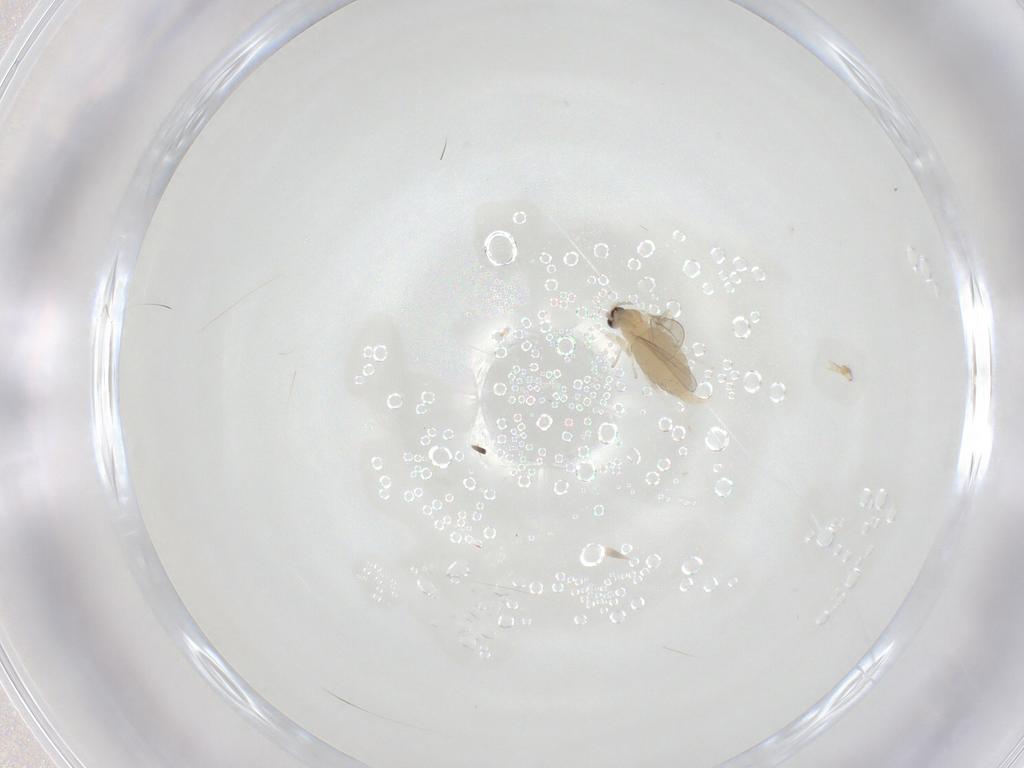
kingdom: Animalia
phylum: Arthropoda
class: Insecta
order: Diptera
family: Cecidomyiidae
